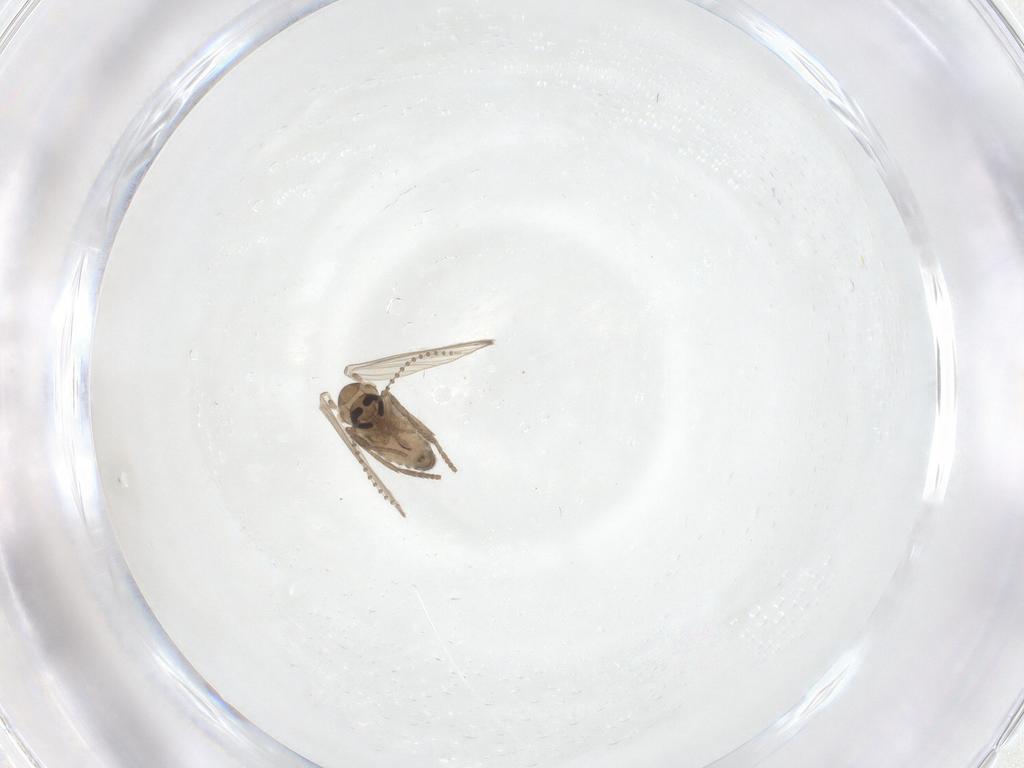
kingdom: Animalia
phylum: Arthropoda
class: Insecta
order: Diptera
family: Psychodidae
